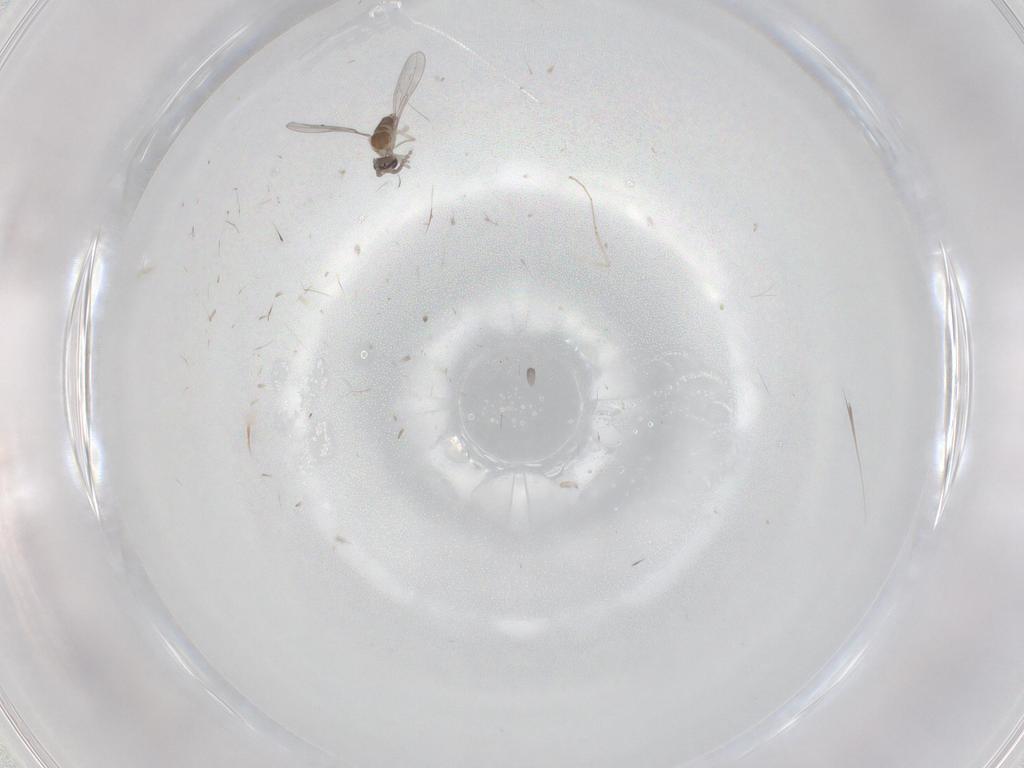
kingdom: Animalia
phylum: Arthropoda
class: Insecta
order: Diptera
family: Cecidomyiidae
